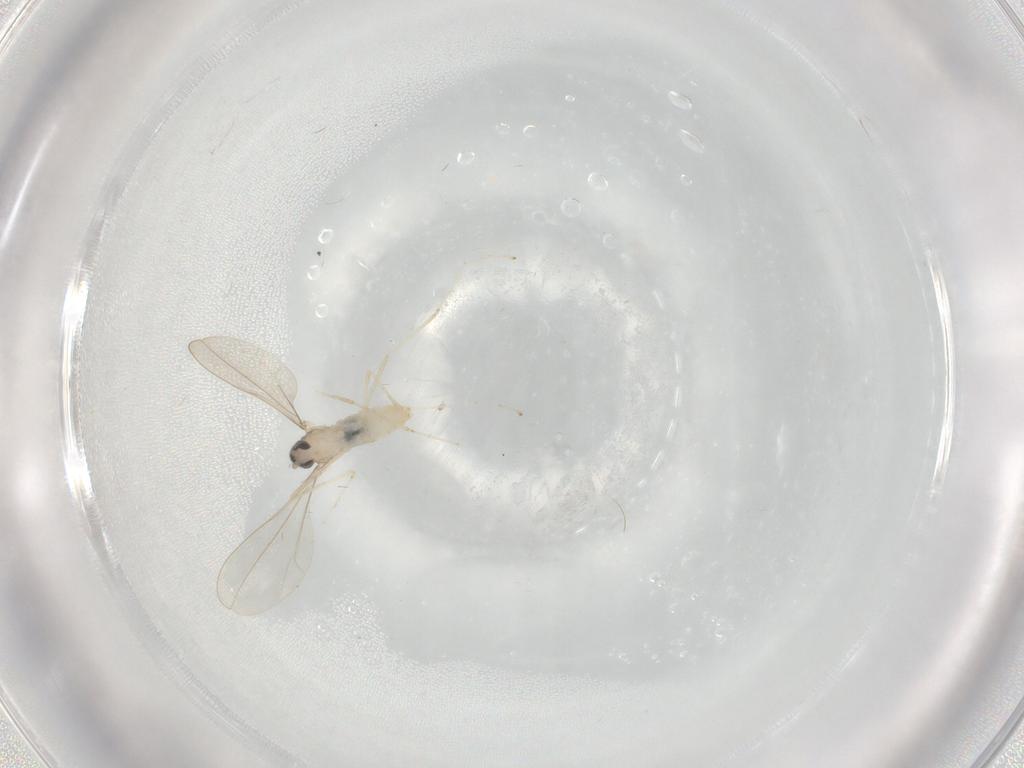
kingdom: Animalia
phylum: Arthropoda
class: Insecta
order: Diptera
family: Cecidomyiidae
